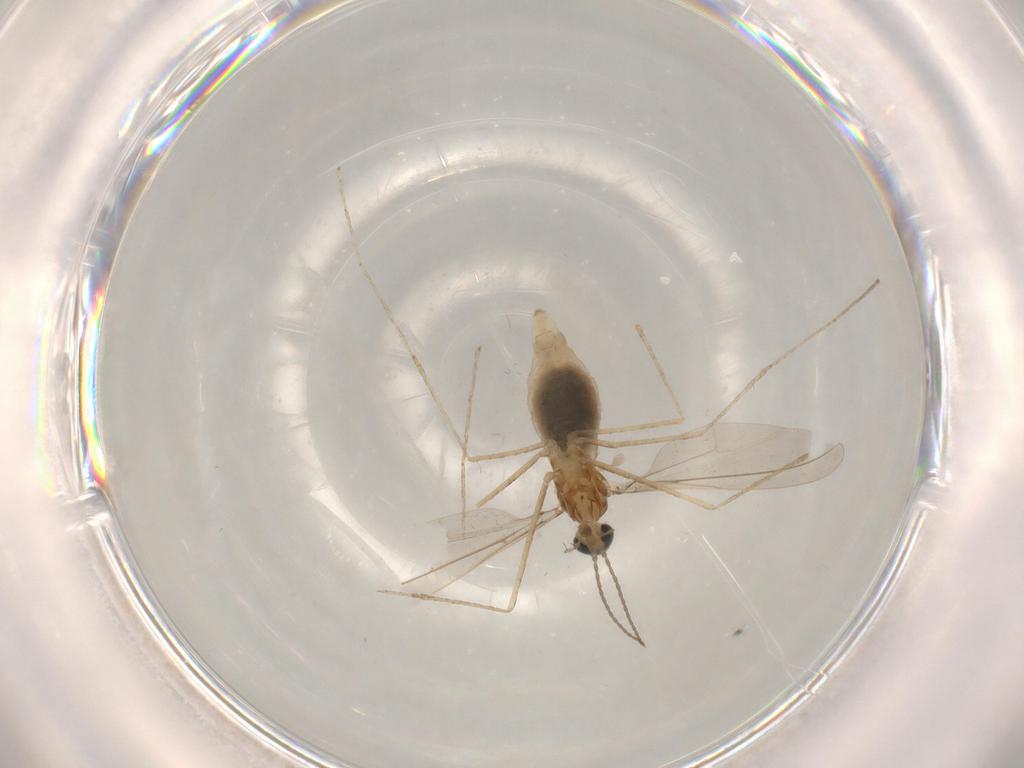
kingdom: Animalia
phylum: Arthropoda
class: Insecta
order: Diptera
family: Cecidomyiidae
